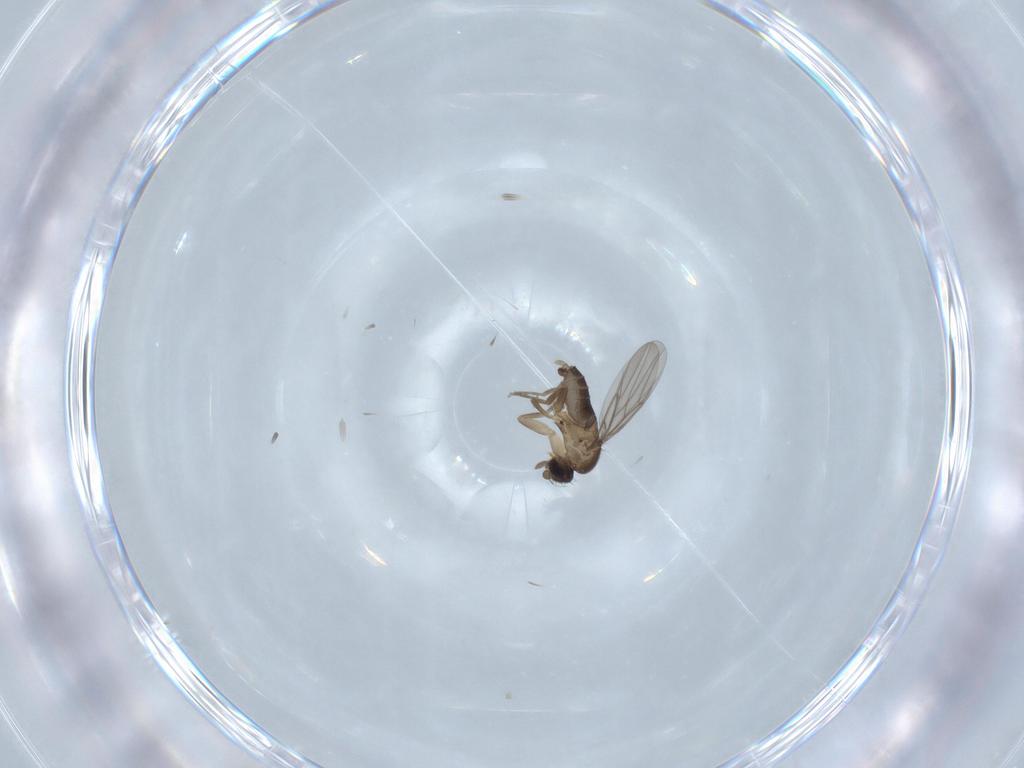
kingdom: Animalia
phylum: Arthropoda
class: Insecta
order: Diptera
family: Phoridae
